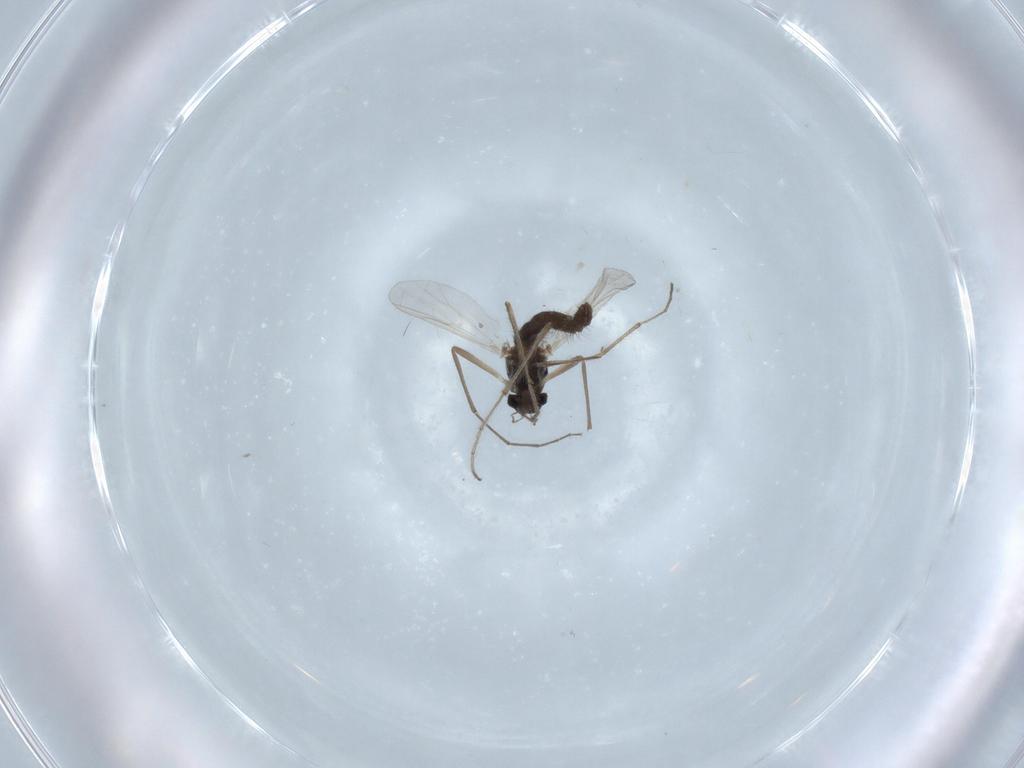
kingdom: Animalia
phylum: Arthropoda
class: Insecta
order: Diptera
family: Chironomidae
